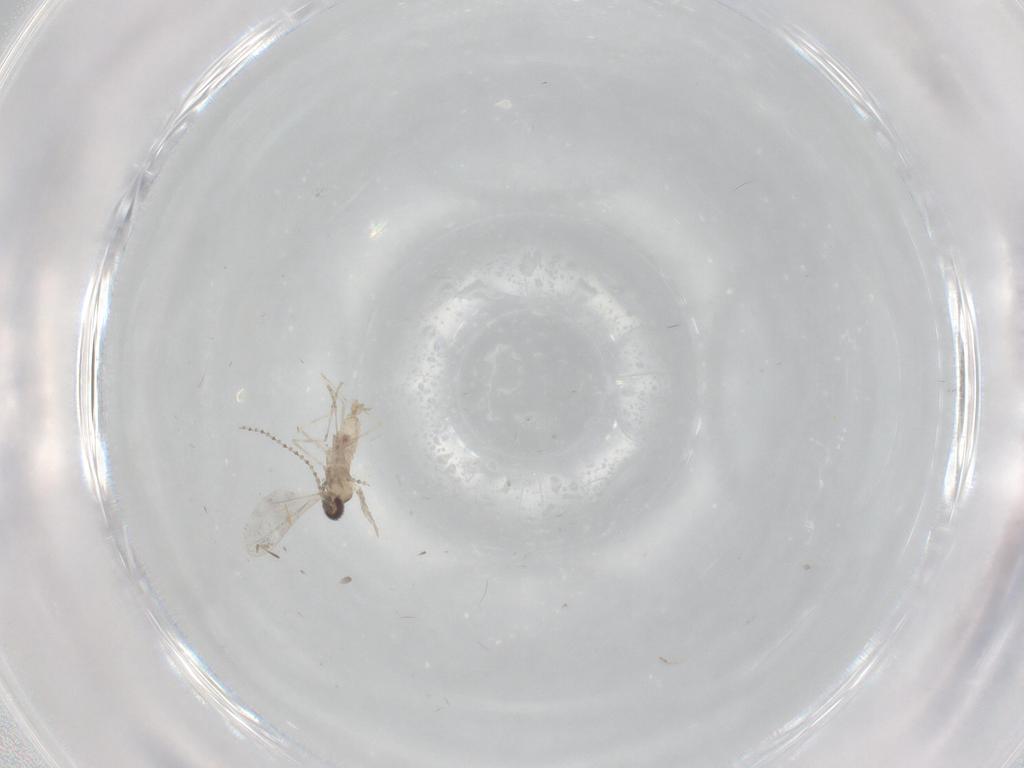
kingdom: Animalia
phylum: Arthropoda
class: Insecta
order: Diptera
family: Cecidomyiidae
